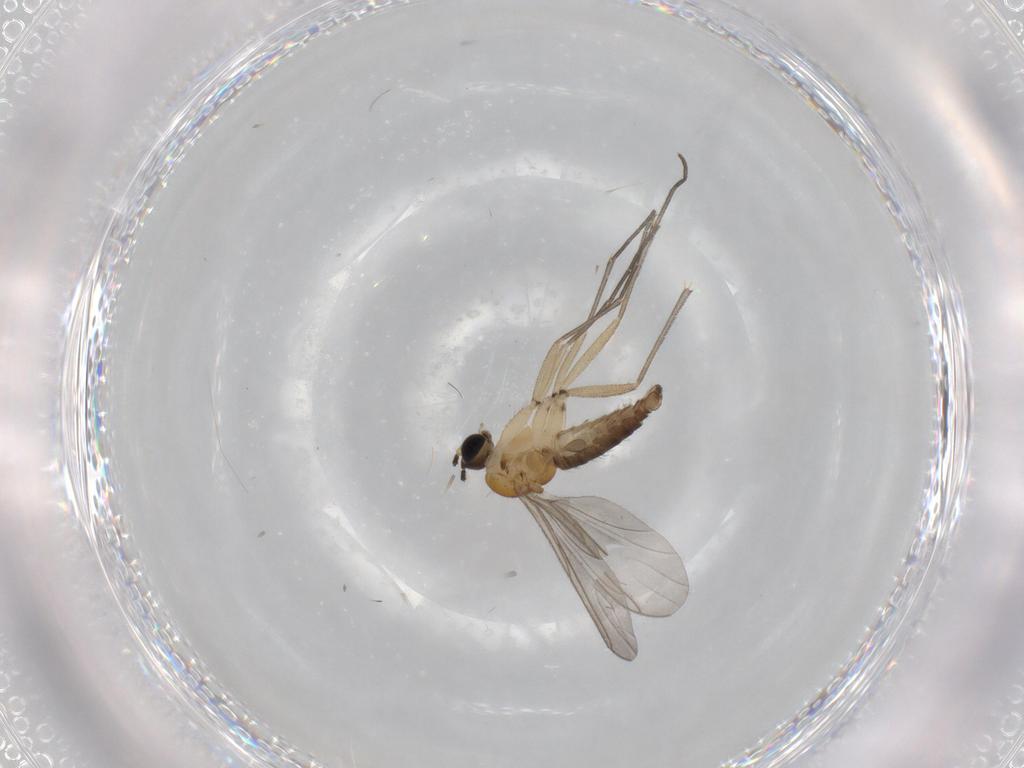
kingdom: Animalia
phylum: Arthropoda
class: Insecta
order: Diptera
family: Sciaridae
